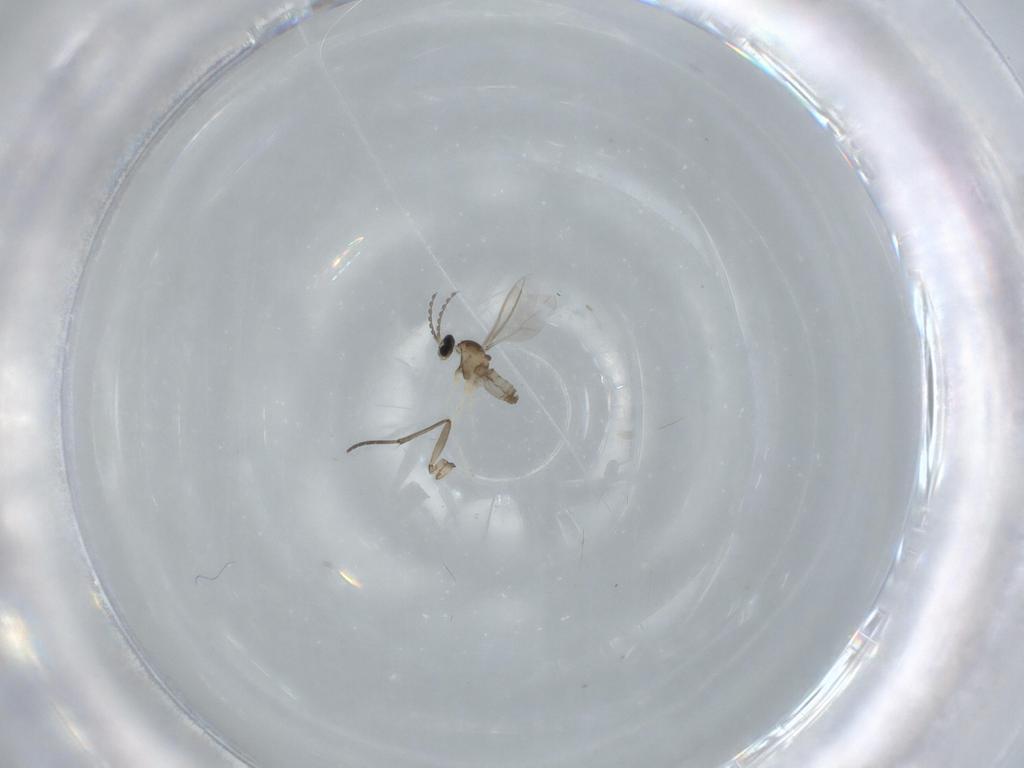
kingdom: Animalia
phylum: Arthropoda
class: Insecta
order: Diptera
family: Cecidomyiidae
